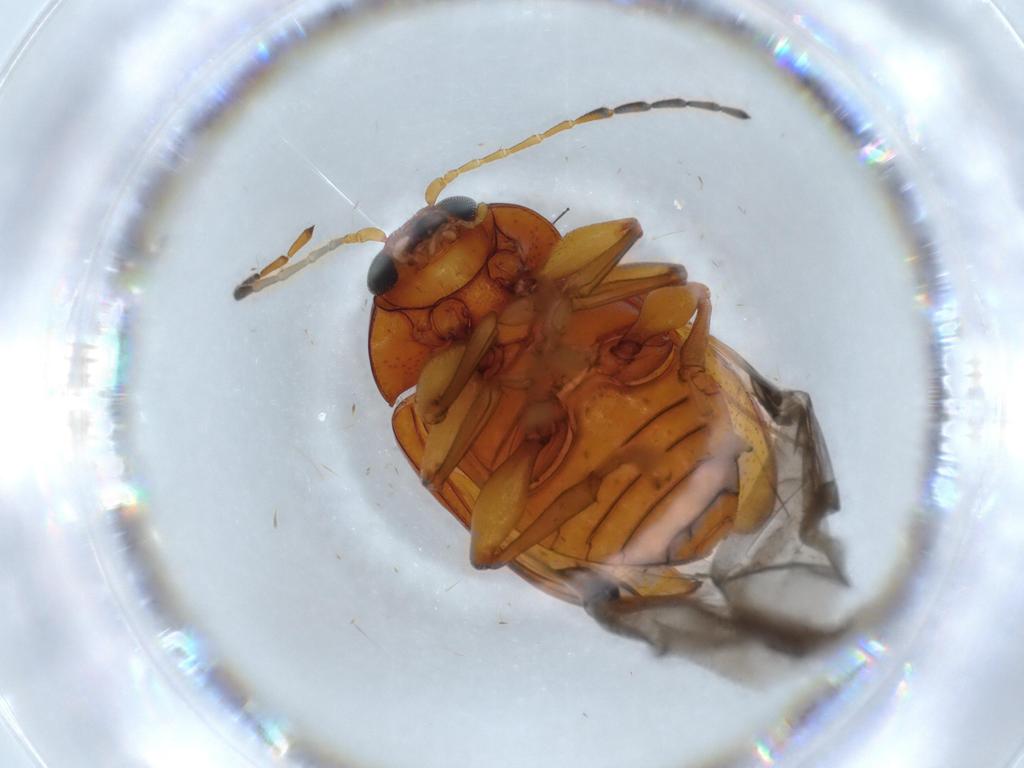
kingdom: Animalia
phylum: Arthropoda
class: Insecta
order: Coleoptera
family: Chrysomelidae
